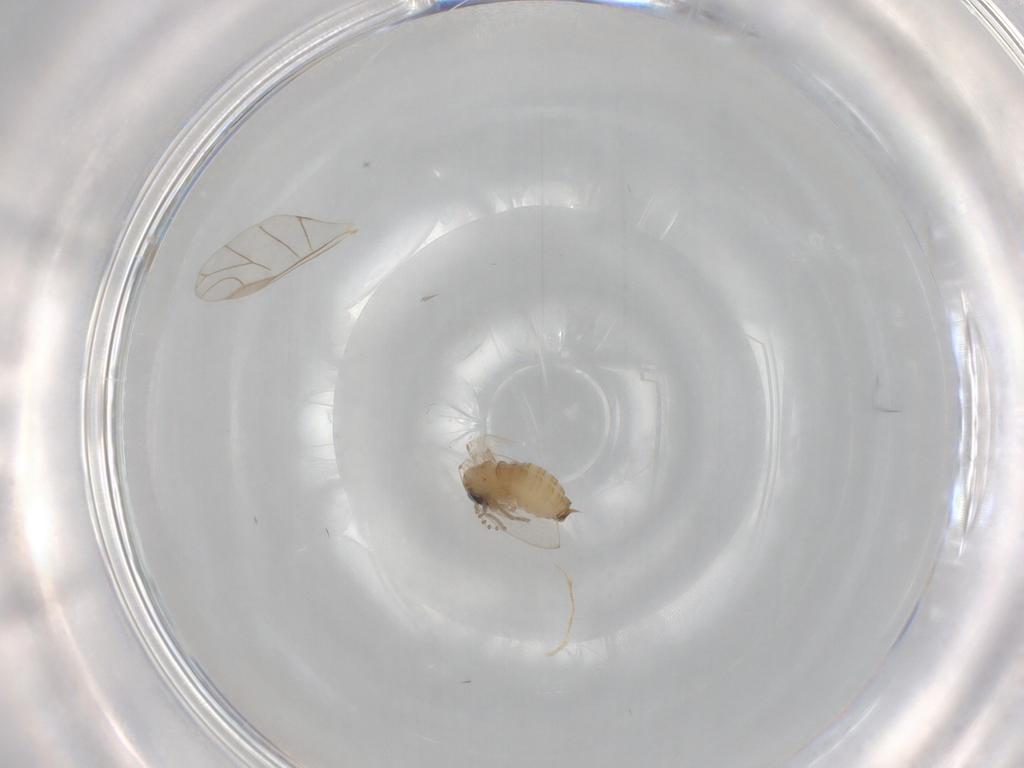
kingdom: Animalia
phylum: Arthropoda
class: Insecta
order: Diptera
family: Psychodidae
